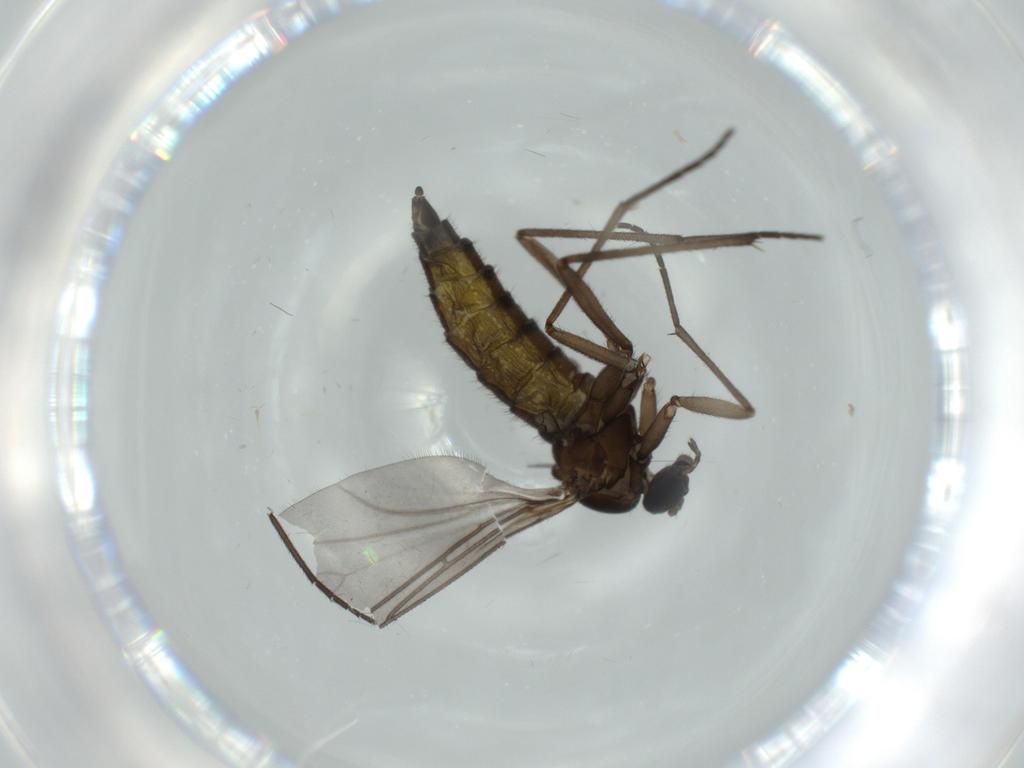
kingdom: Animalia
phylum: Arthropoda
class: Insecta
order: Diptera
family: Sciaridae
